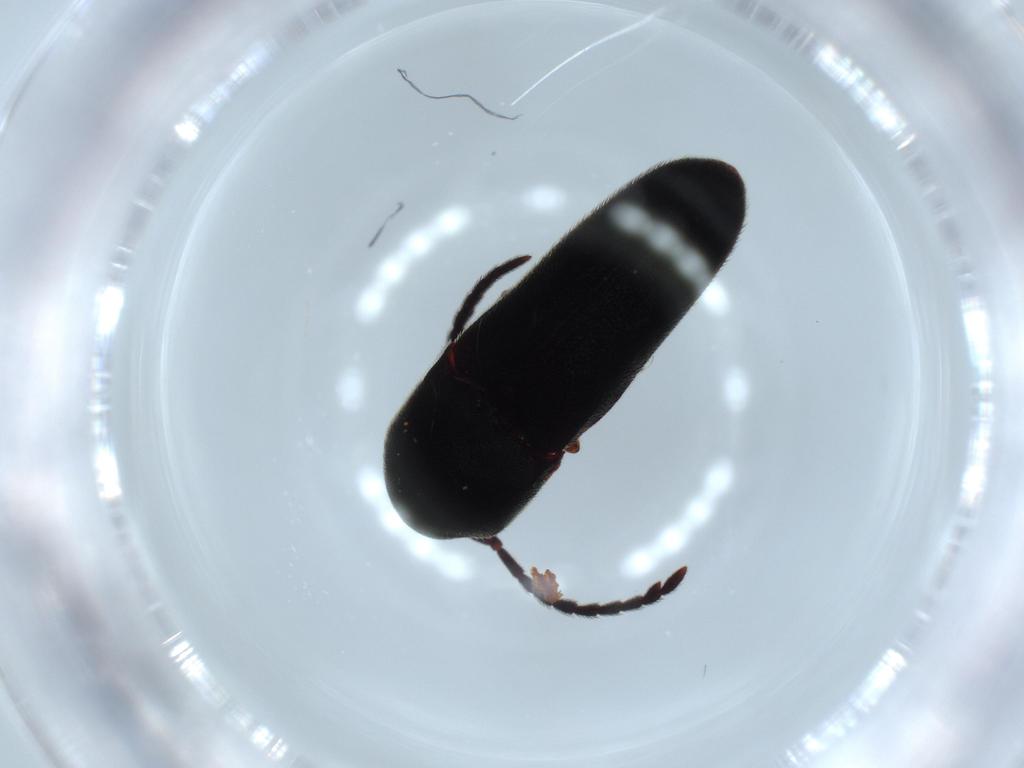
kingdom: Animalia
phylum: Arthropoda
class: Insecta
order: Coleoptera
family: Eucnemidae
